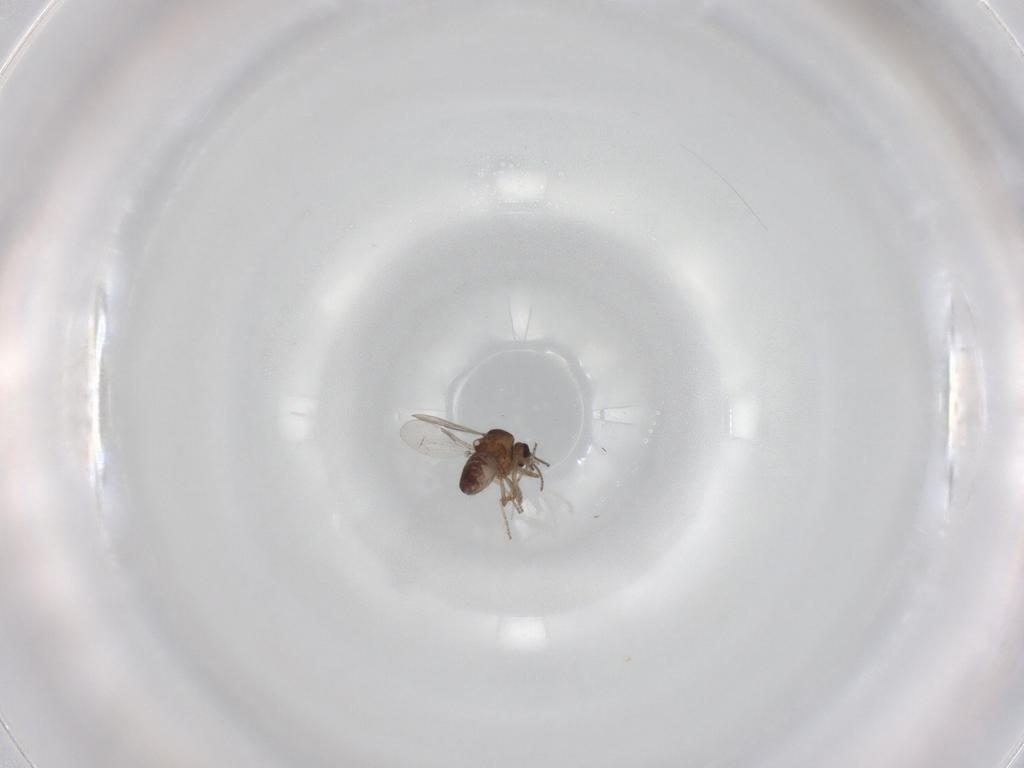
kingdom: Animalia
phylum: Arthropoda
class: Insecta
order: Diptera
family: Ceratopogonidae
